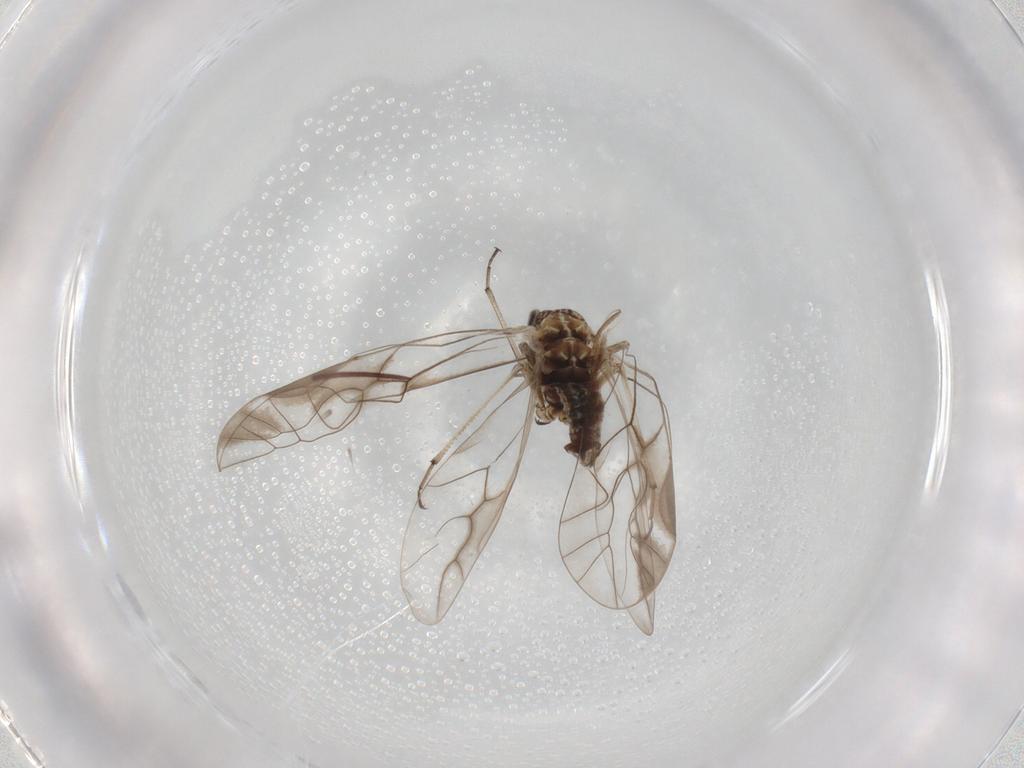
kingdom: Animalia
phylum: Arthropoda
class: Insecta
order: Psocodea
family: Psocidae
